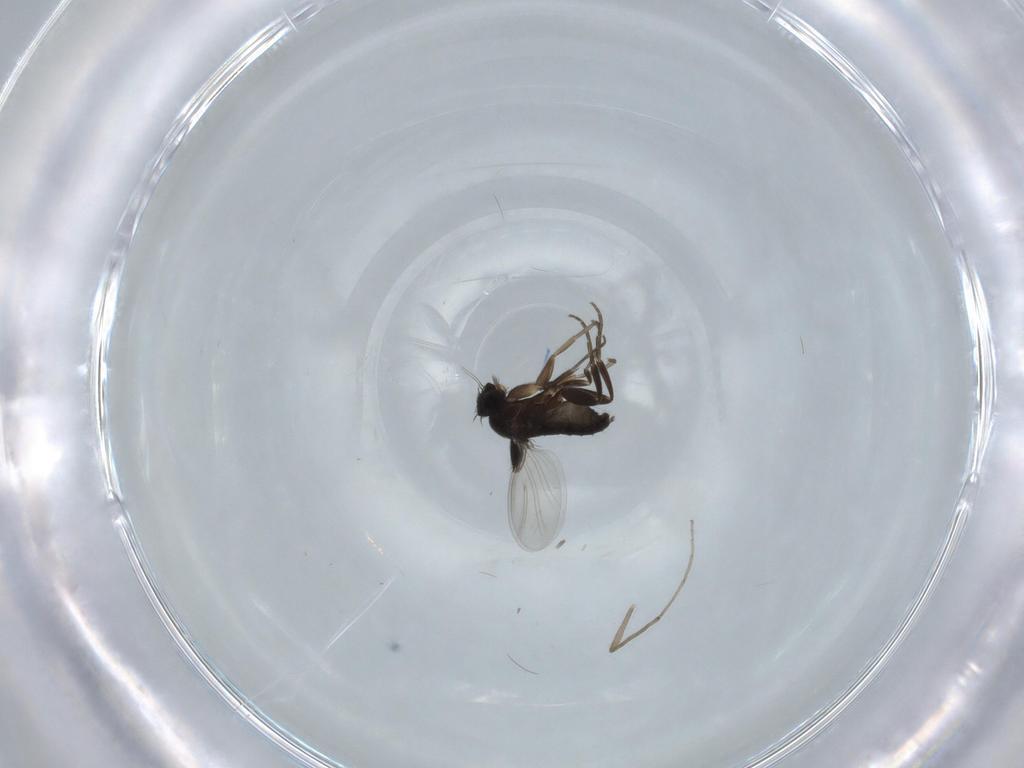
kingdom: Animalia
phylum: Arthropoda
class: Insecta
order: Diptera
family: Chironomidae
